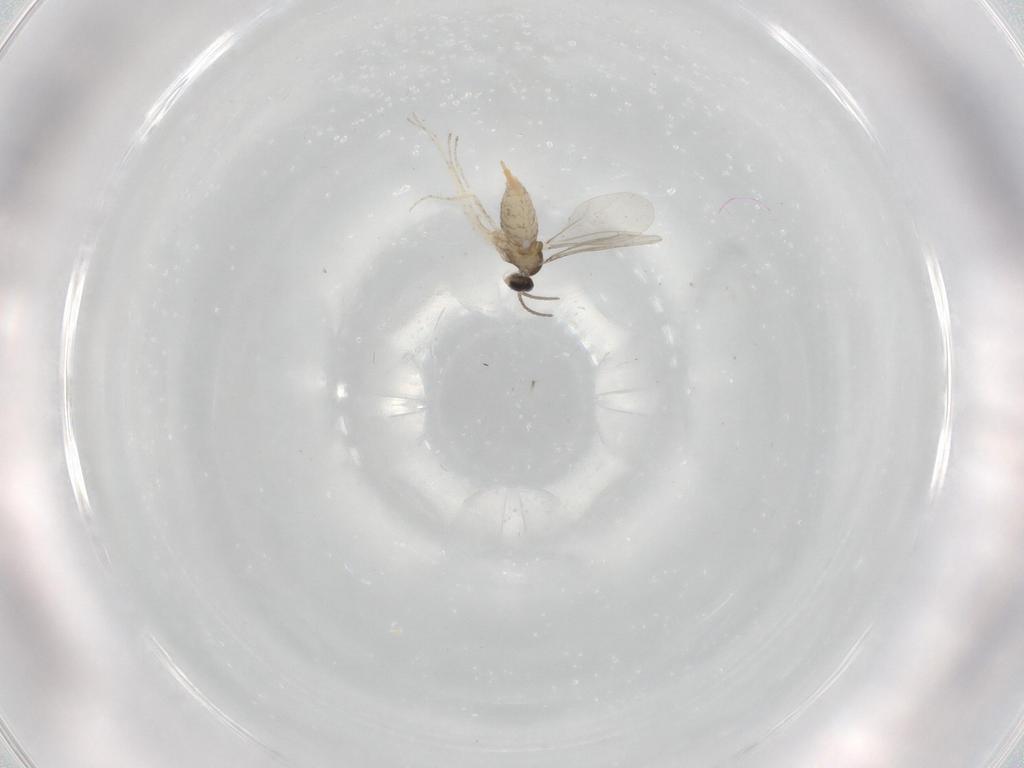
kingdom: Animalia
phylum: Arthropoda
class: Insecta
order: Diptera
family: Cecidomyiidae
